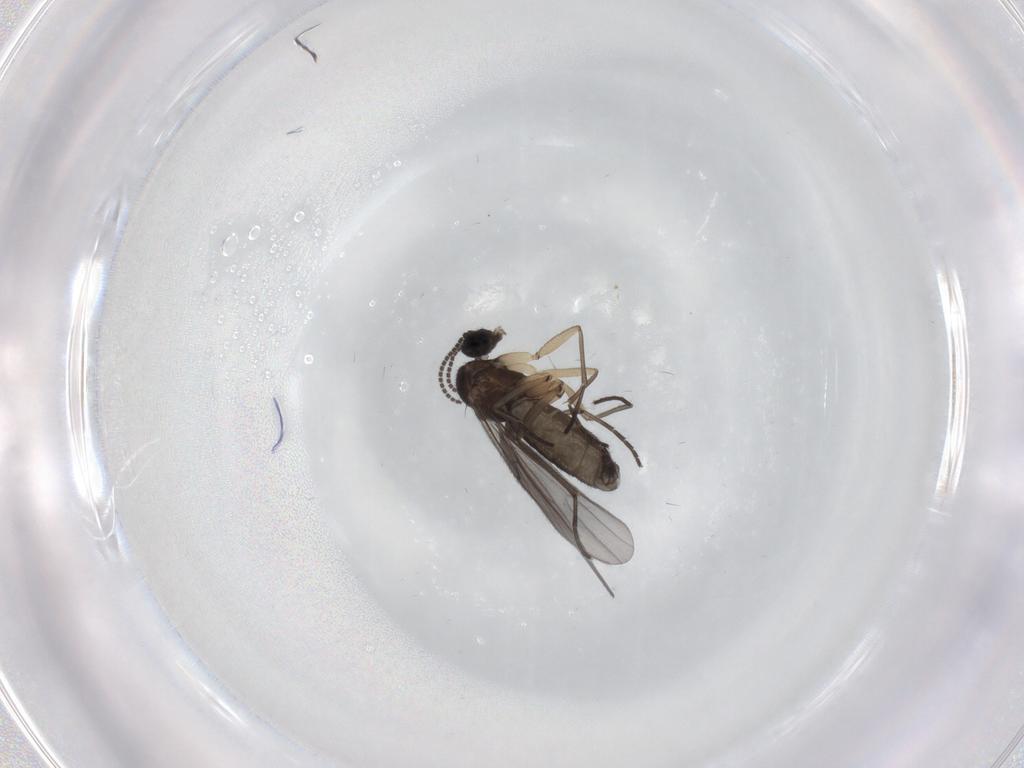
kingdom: Animalia
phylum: Arthropoda
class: Insecta
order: Diptera
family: Sciaridae
